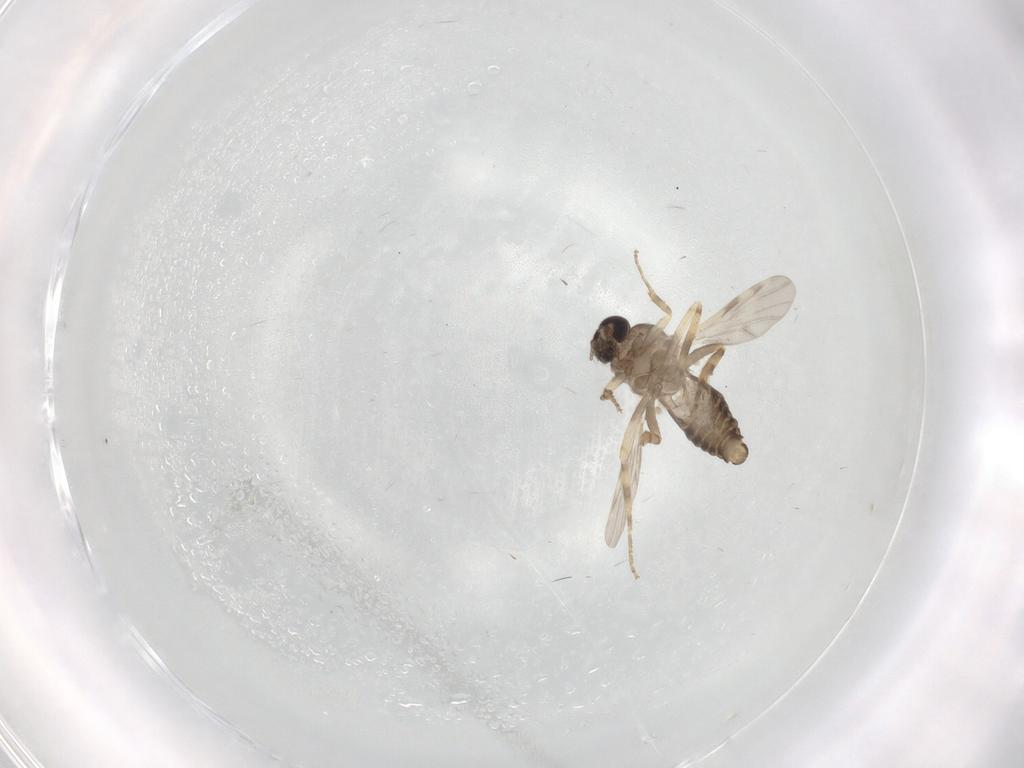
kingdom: Animalia
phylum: Arthropoda
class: Insecta
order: Diptera
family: Ceratopogonidae
